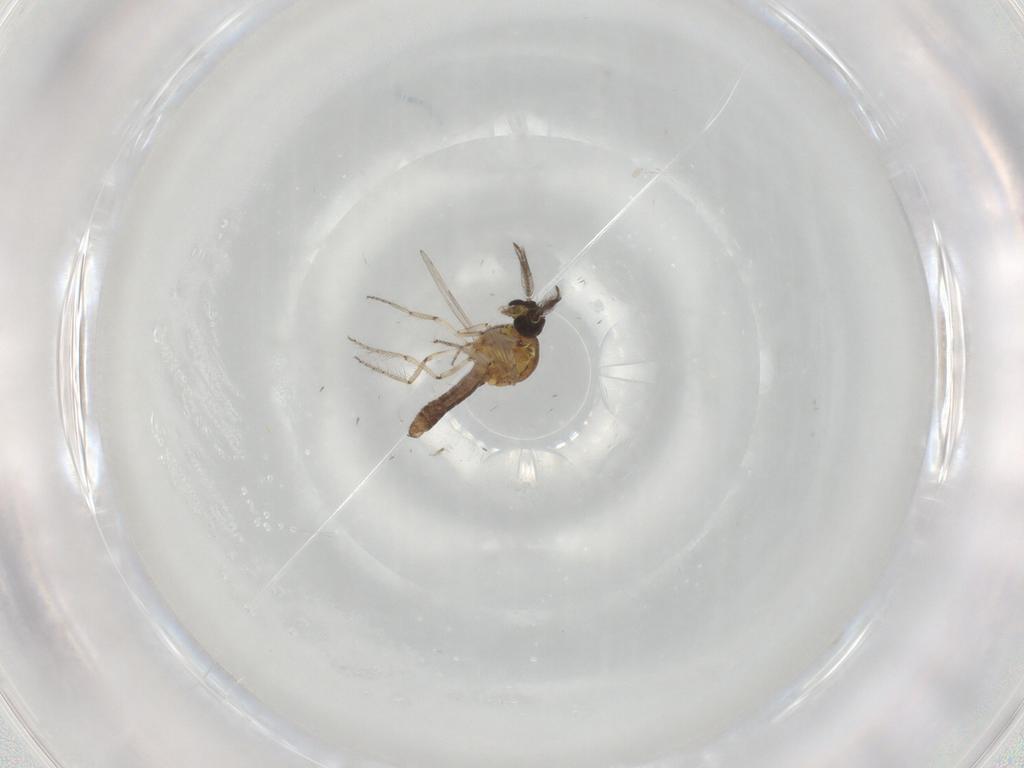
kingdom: Animalia
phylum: Arthropoda
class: Insecta
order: Diptera
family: Ceratopogonidae
